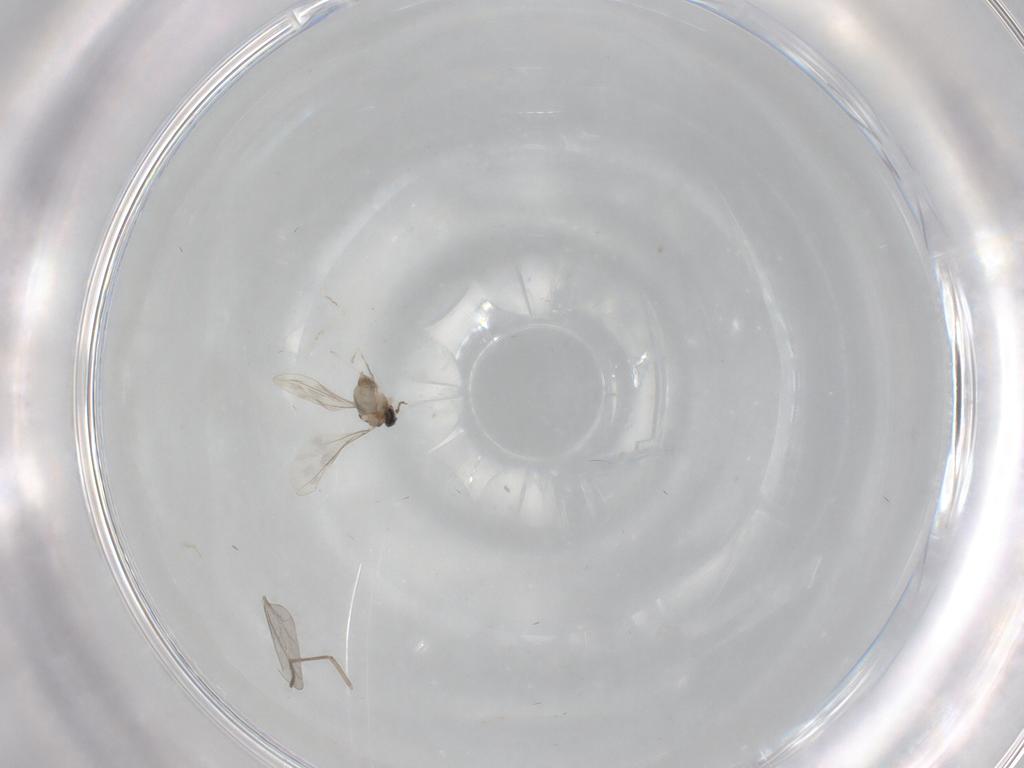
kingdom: Animalia
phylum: Arthropoda
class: Insecta
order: Diptera
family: Cecidomyiidae
